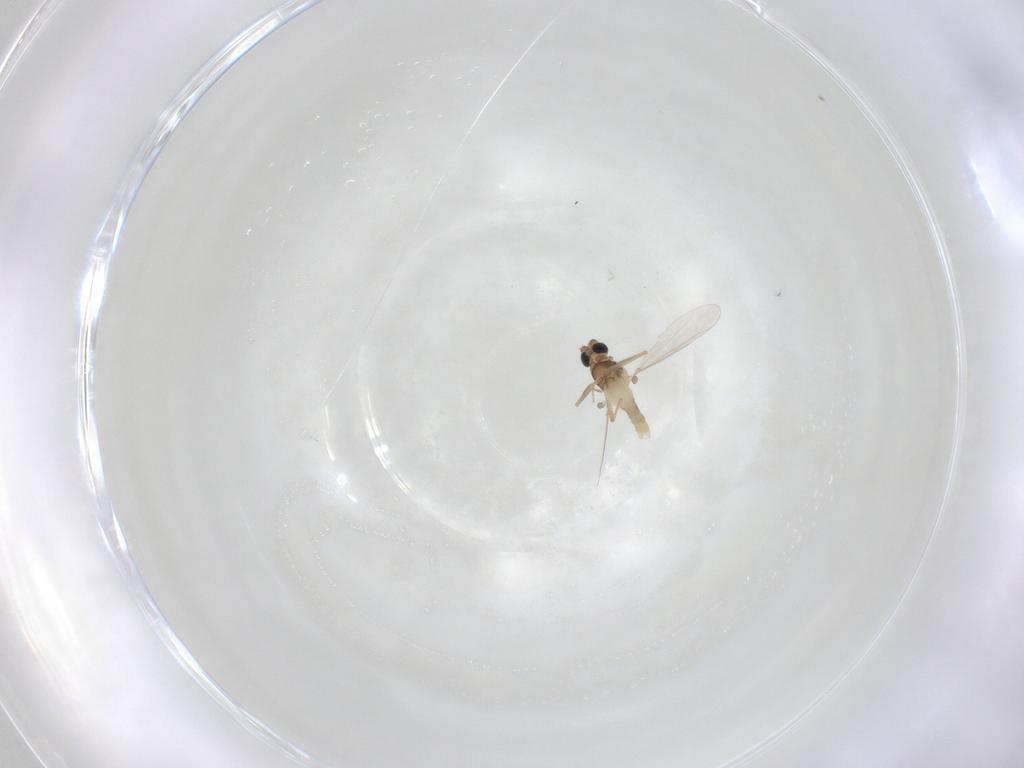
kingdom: Animalia
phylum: Arthropoda
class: Insecta
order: Diptera
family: Chironomidae
